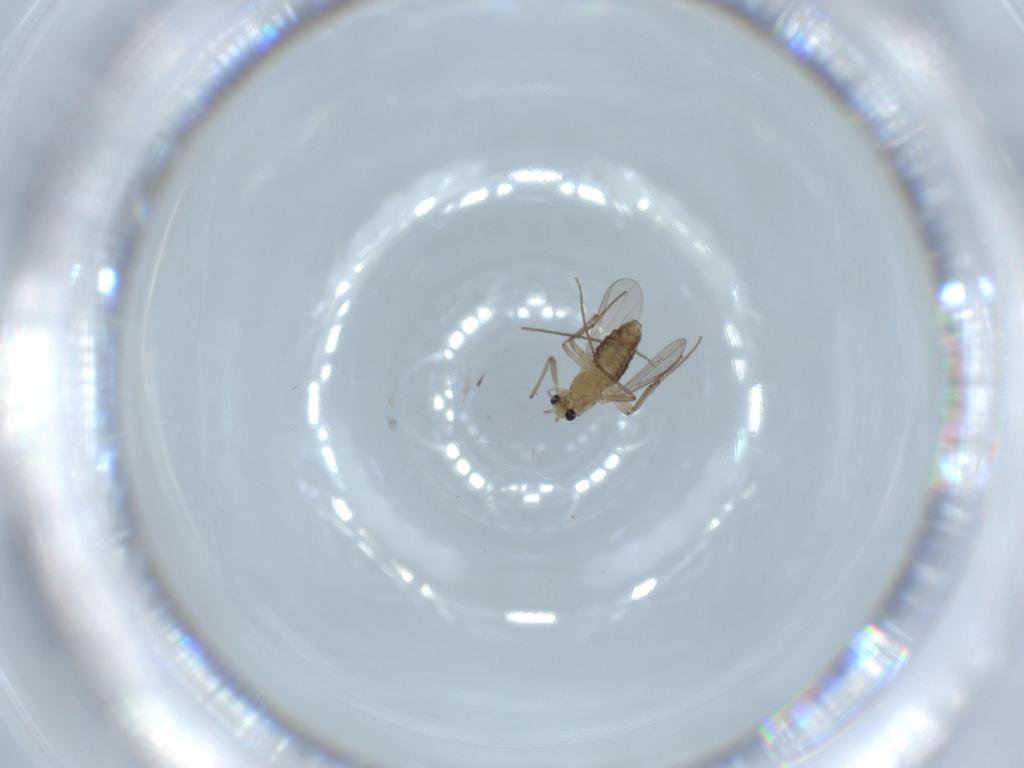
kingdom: Animalia
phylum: Arthropoda
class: Insecta
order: Diptera
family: Chironomidae
